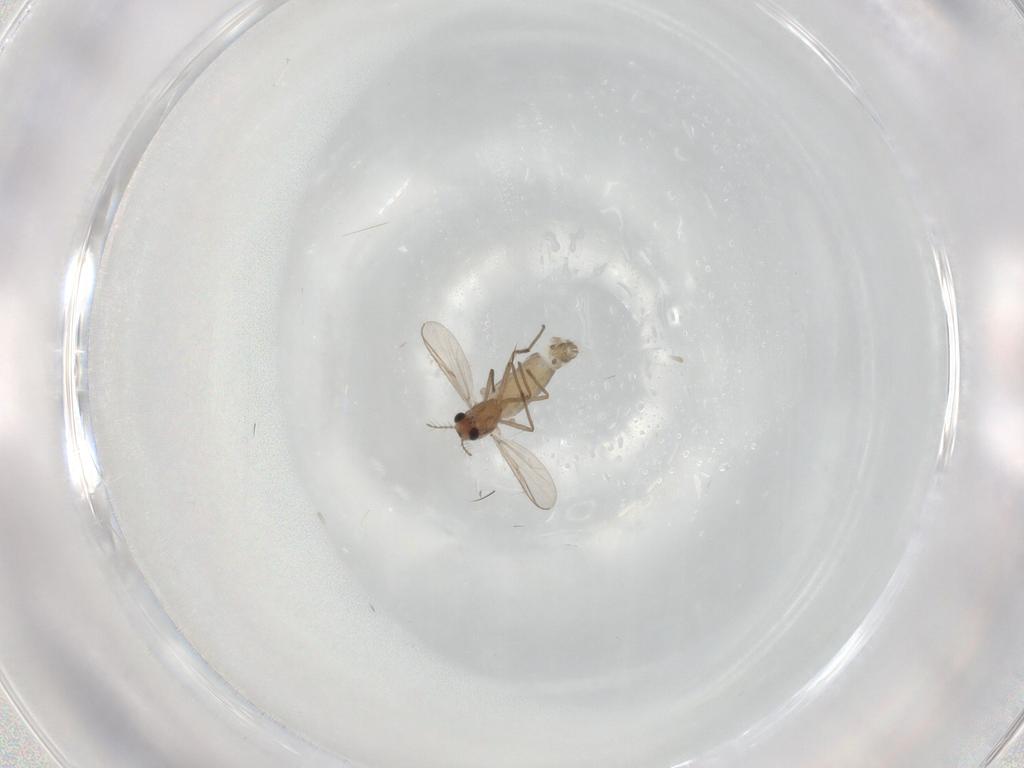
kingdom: Animalia
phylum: Arthropoda
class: Insecta
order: Diptera
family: Chironomidae
